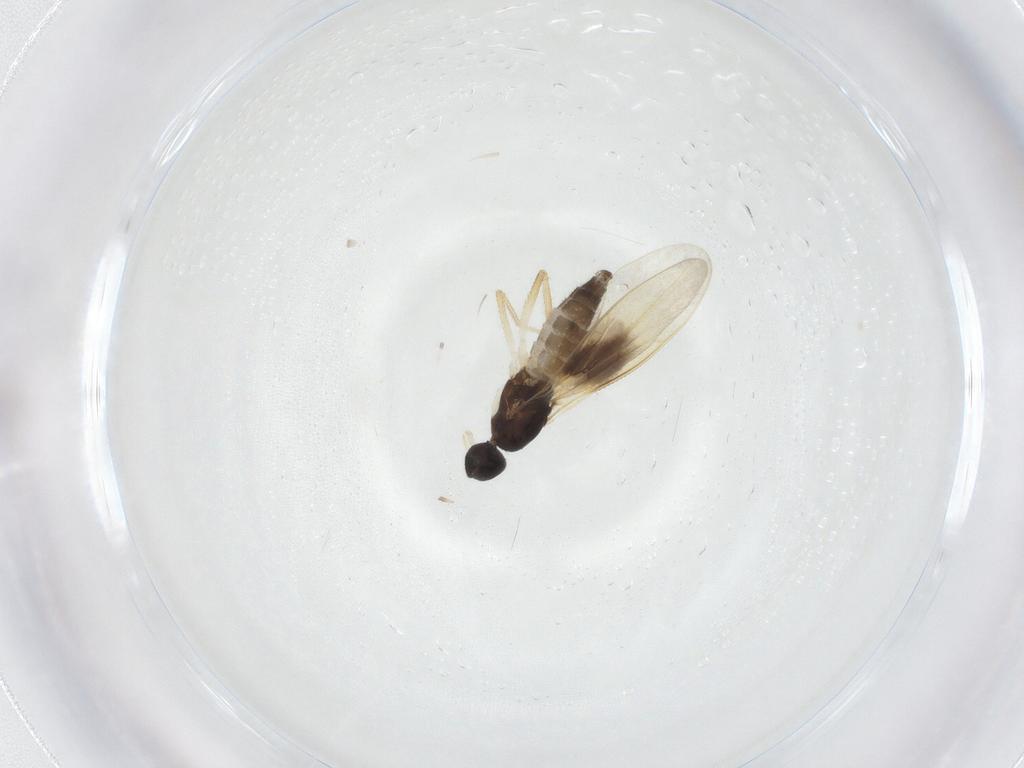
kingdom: Animalia
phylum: Arthropoda
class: Insecta
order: Diptera
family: Empididae
